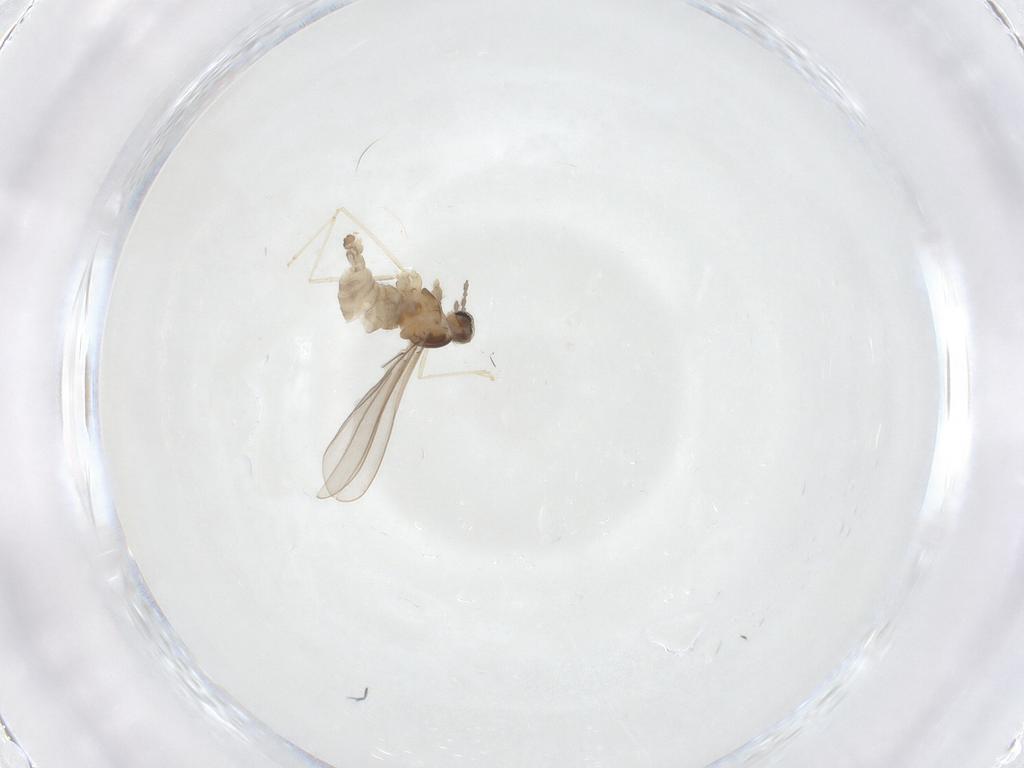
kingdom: Animalia
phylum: Arthropoda
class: Insecta
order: Diptera
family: Cecidomyiidae
